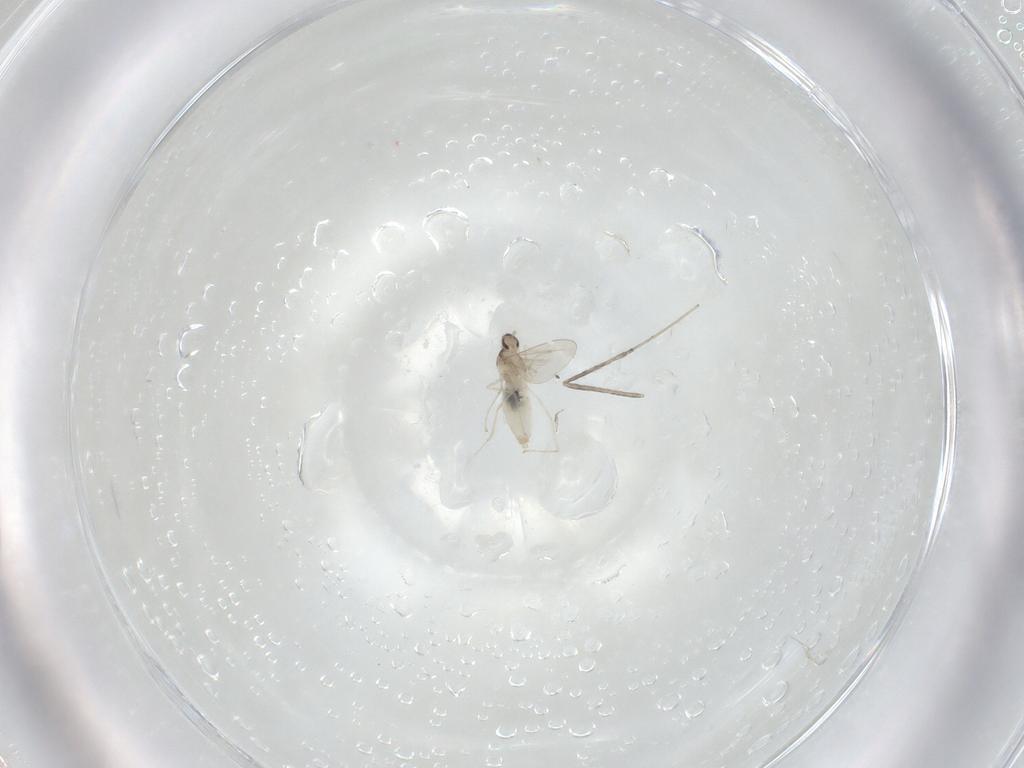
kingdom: Animalia
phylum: Arthropoda
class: Insecta
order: Diptera
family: Cecidomyiidae
